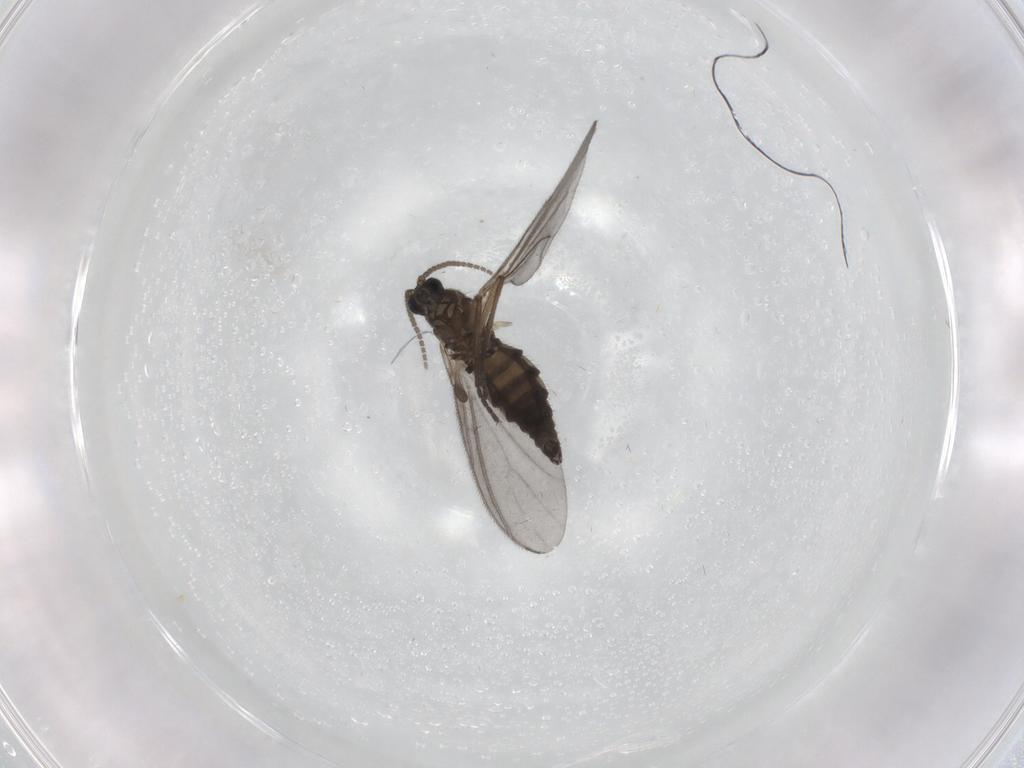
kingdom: Animalia
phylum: Arthropoda
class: Insecta
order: Diptera
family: Sciaridae
